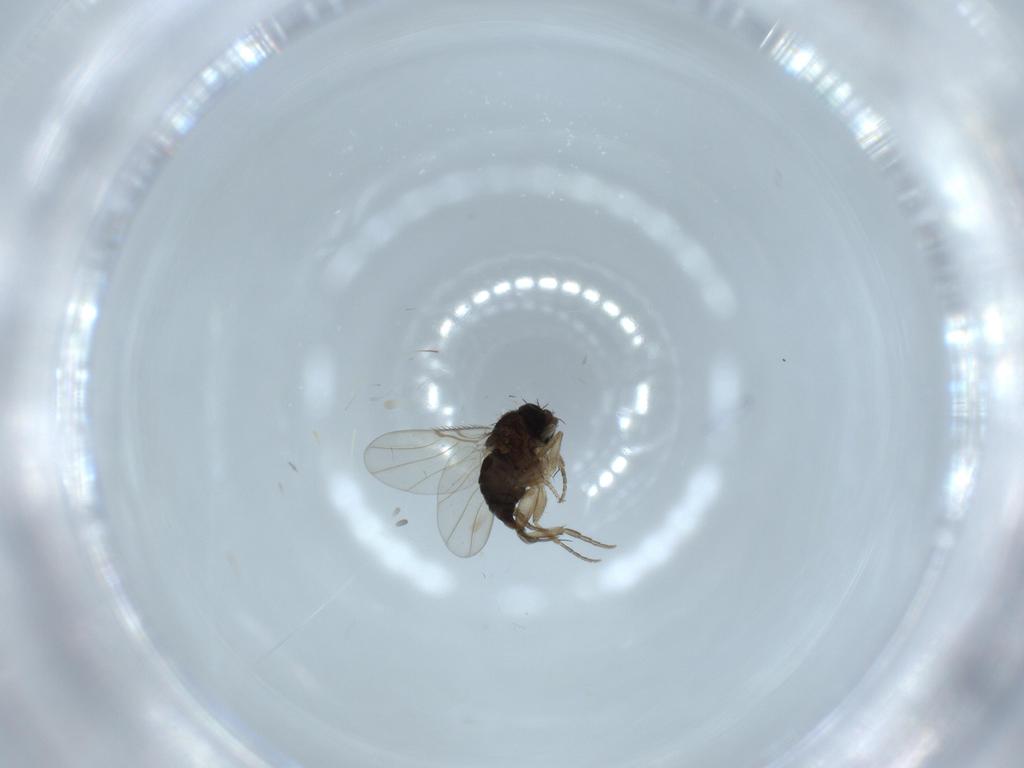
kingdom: Animalia
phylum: Arthropoda
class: Insecta
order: Diptera
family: Phoridae
